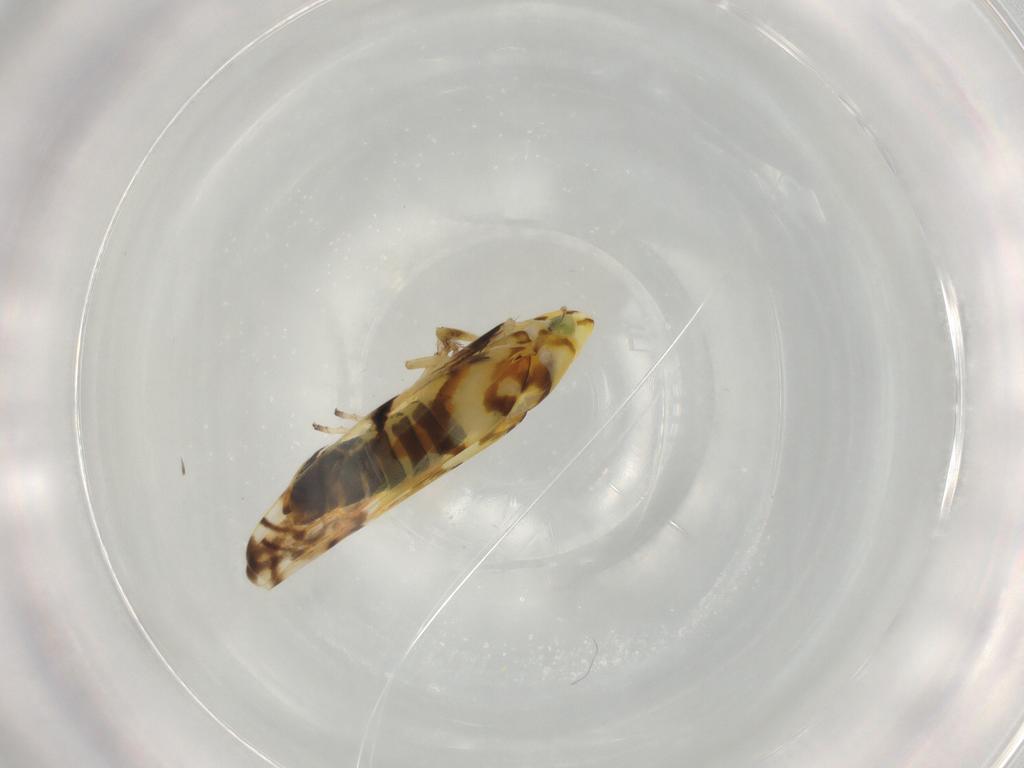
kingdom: Animalia
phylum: Arthropoda
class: Insecta
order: Hemiptera
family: Cicadellidae
